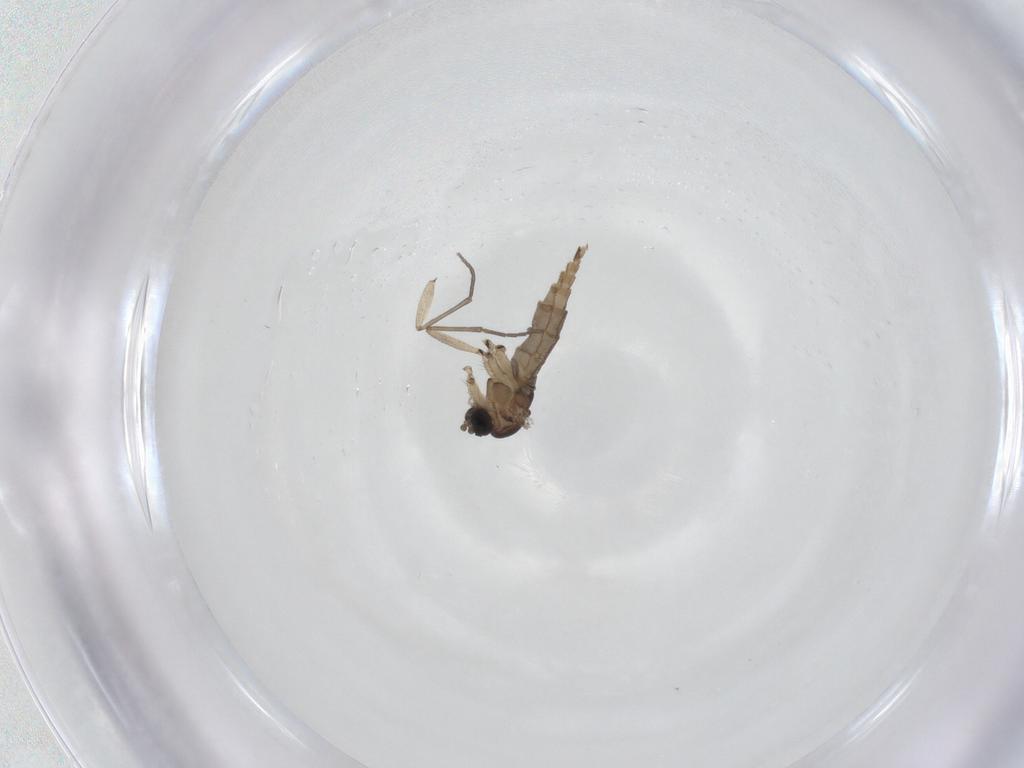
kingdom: Animalia
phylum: Arthropoda
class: Insecta
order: Diptera
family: Sciaridae
